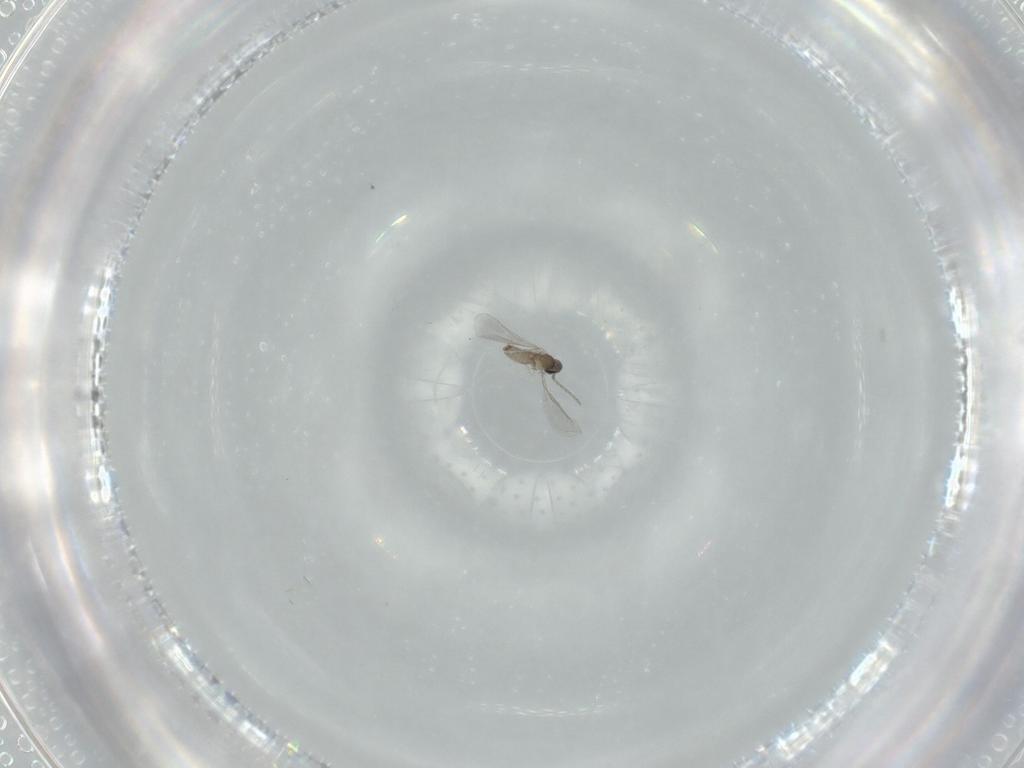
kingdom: Animalia
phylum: Arthropoda
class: Insecta
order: Diptera
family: Cecidomyiidae
